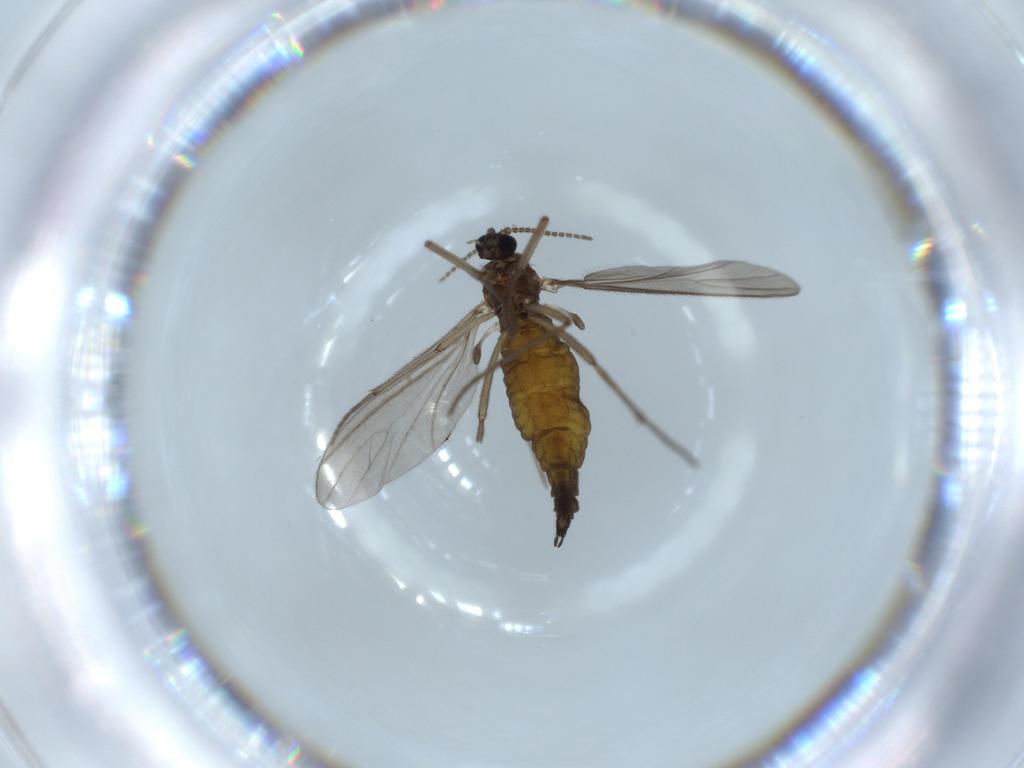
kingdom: Animalia
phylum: Arthropoda
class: Insecta
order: Diptera
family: Sciaridae
